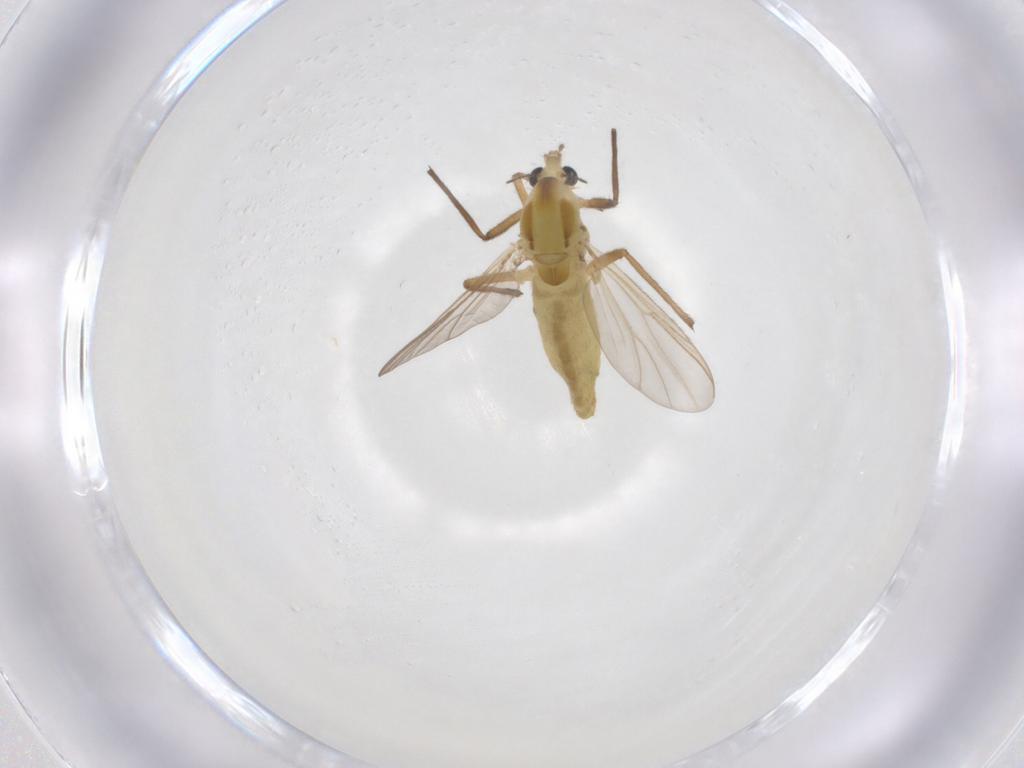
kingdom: Animalia
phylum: Arthropoda
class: Insecta
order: Diptera
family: Chironomidae
